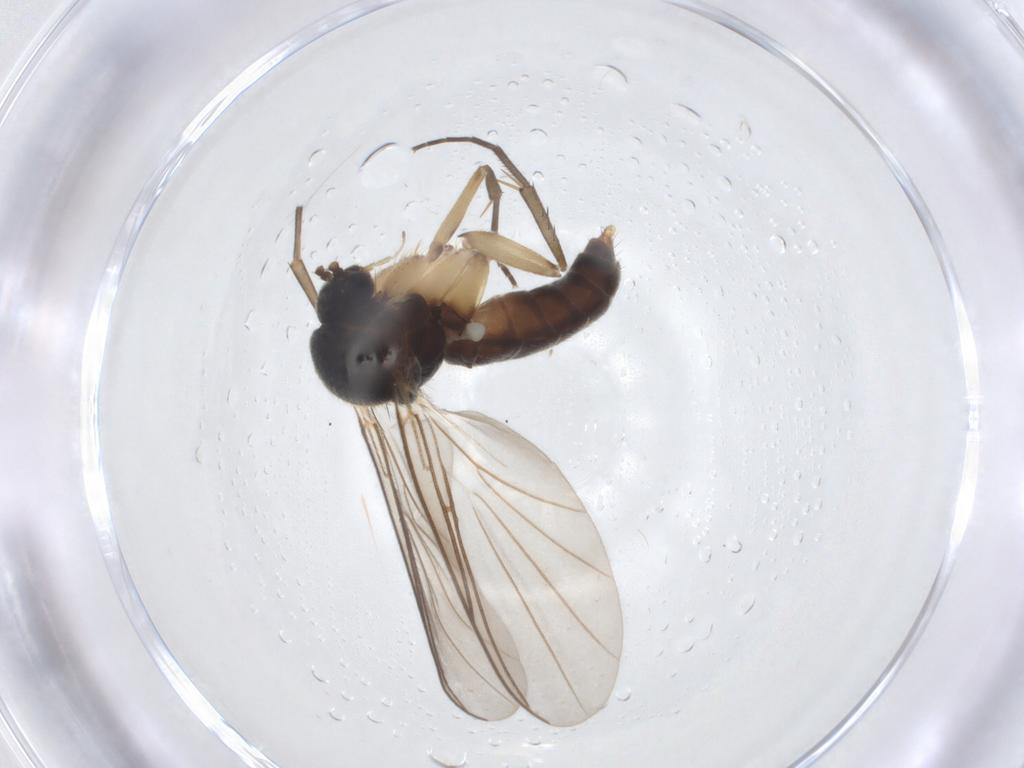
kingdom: Animalia
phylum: Arthropoda
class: Insecta
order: Diptera
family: Mycetophilidae
